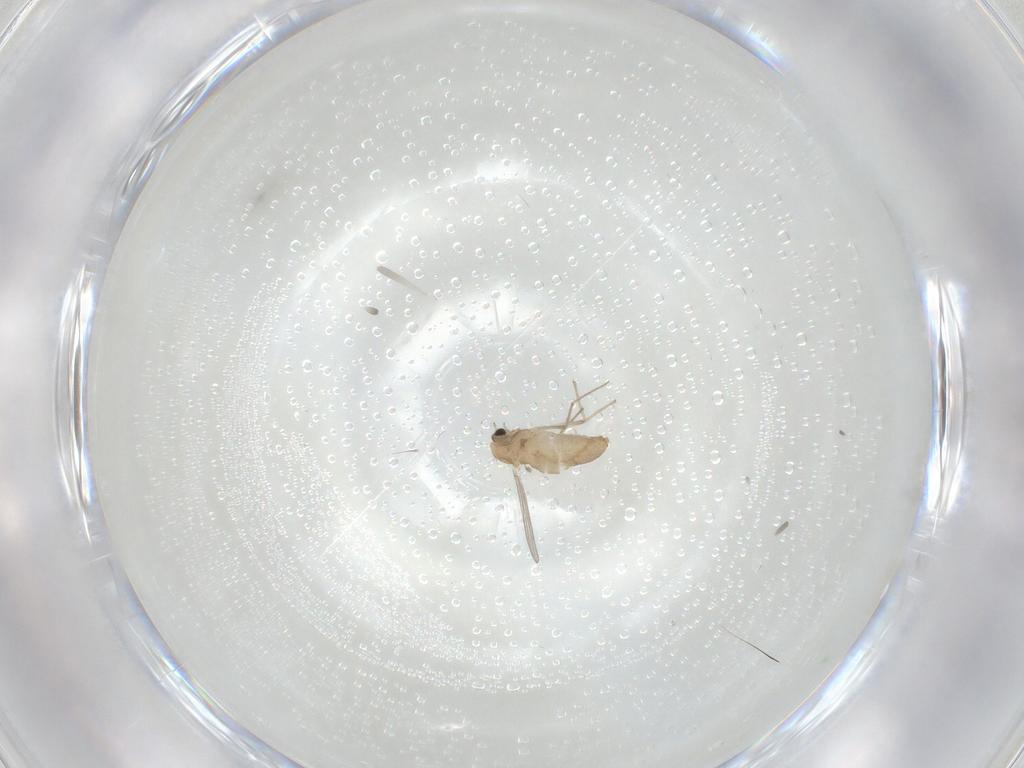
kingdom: Animalia
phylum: Arthropoda
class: Insecta
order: Diptera
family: Chironomidae
